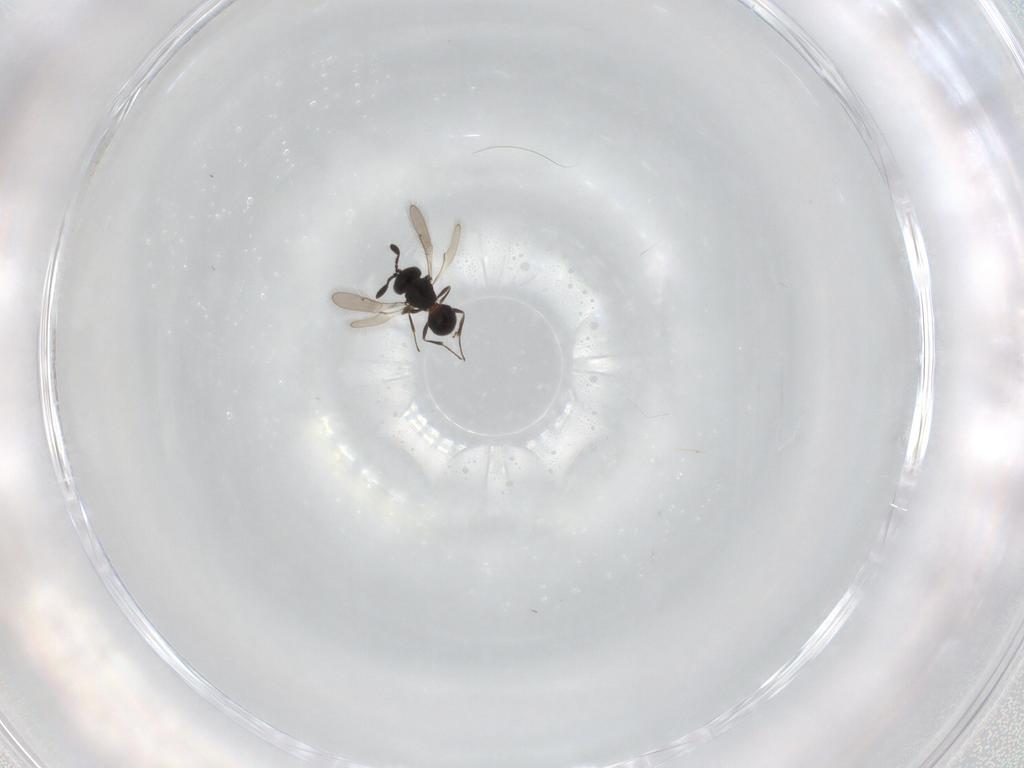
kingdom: Animalia
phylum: Arthropoda
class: Insecta
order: Hymenoptera
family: Scelionidae
